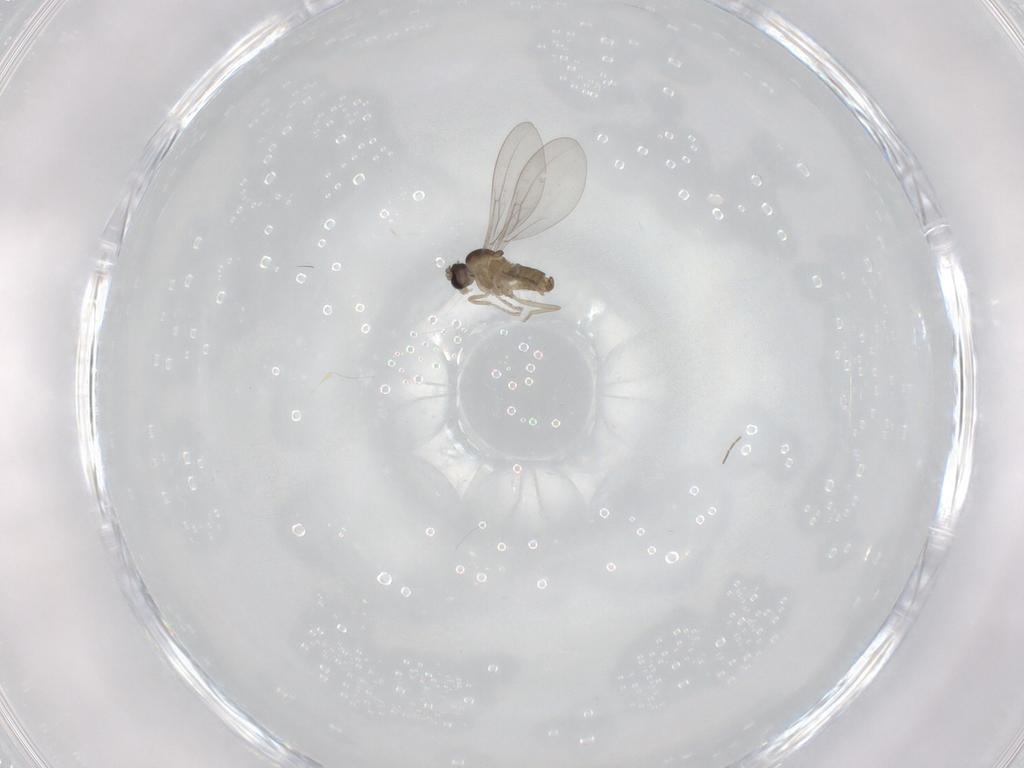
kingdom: Animalia
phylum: Arthropoda
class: Insecta
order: Diptera
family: Cecidomyiidae
